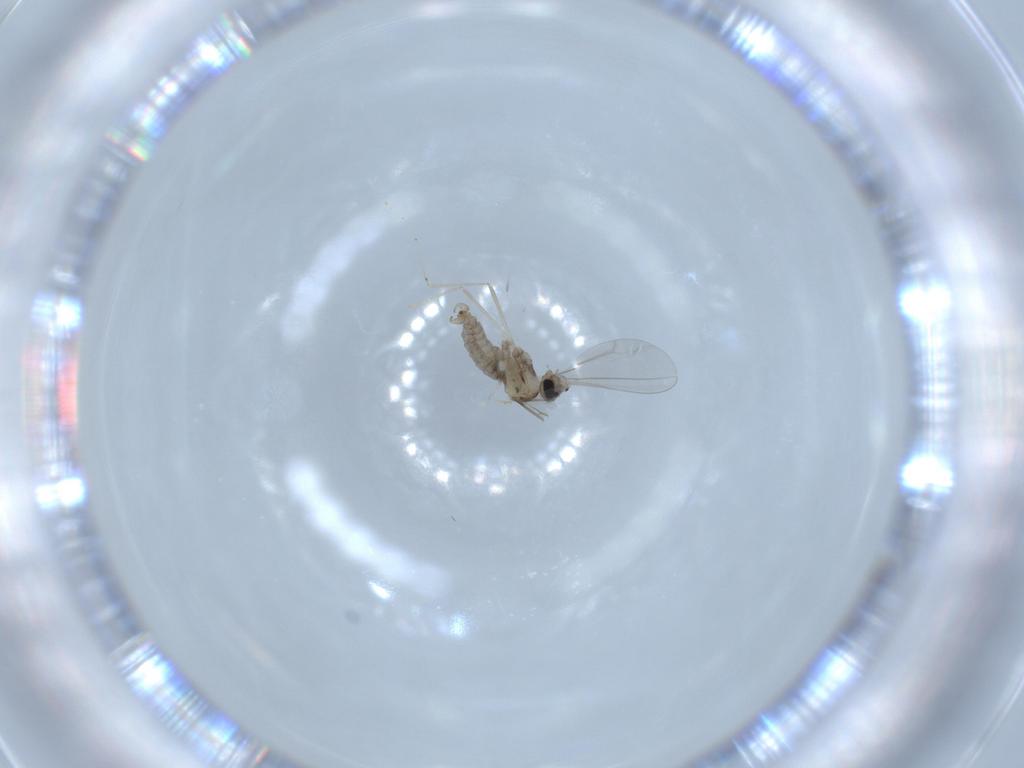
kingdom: Animalia
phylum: Arthropoda
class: Insecta
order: Diptera
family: Cecidomyiidae
